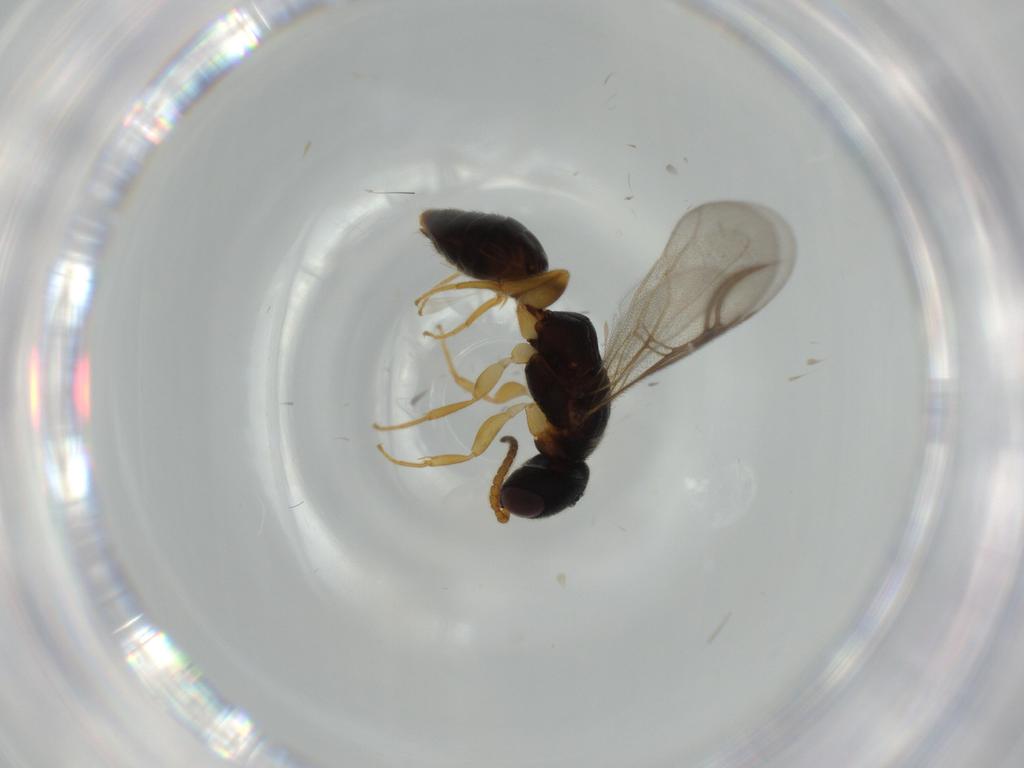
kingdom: Animalia
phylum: Arthropoda
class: Insecta
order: Hymenoptera
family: Bethylidae
